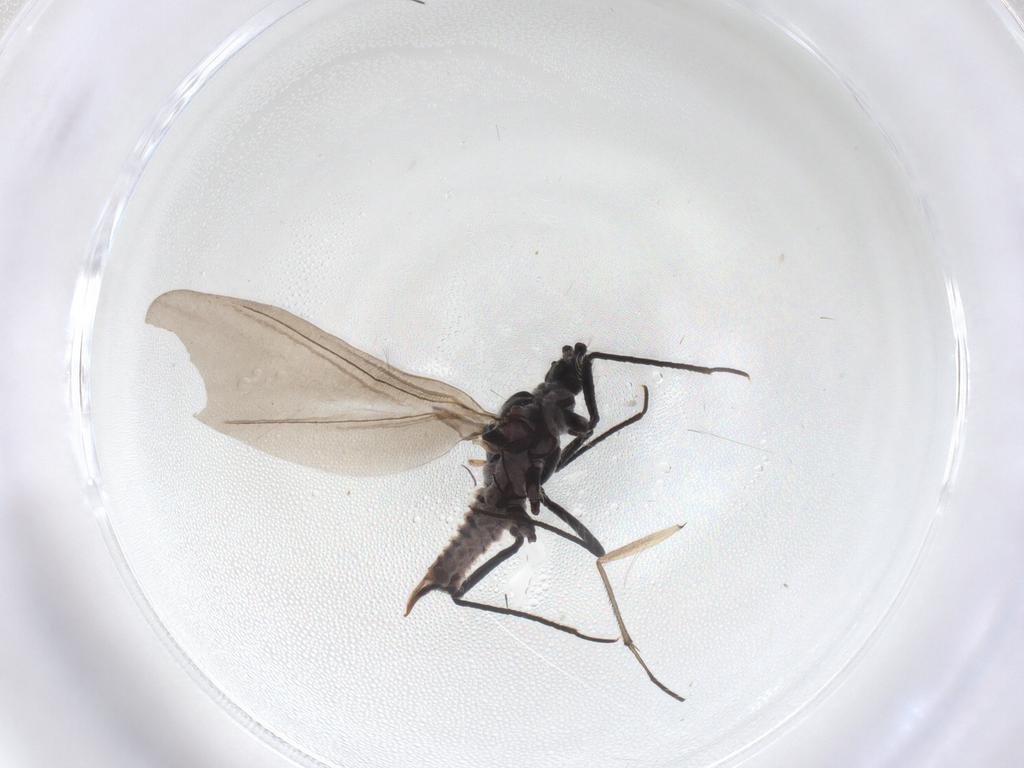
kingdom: Animalia
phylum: Arthropoda
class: Insecta
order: Hemiptera
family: Putoidae
